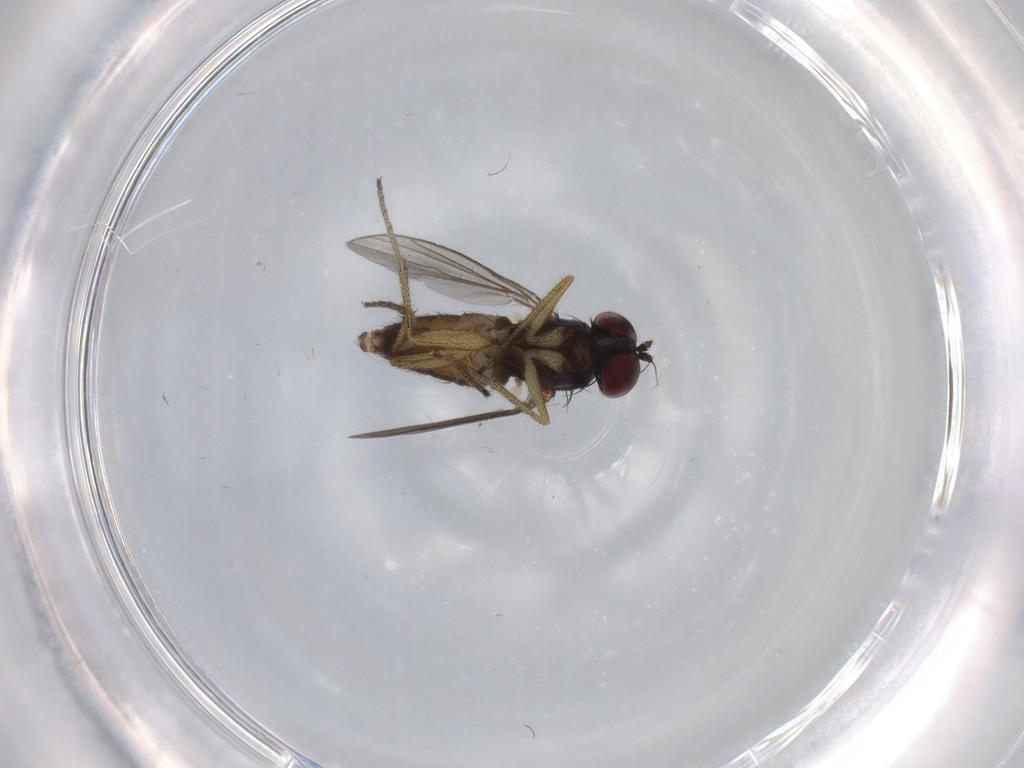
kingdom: Animalia
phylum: Arthropoda
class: Insecta
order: Diptera
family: Dolichopodidae
